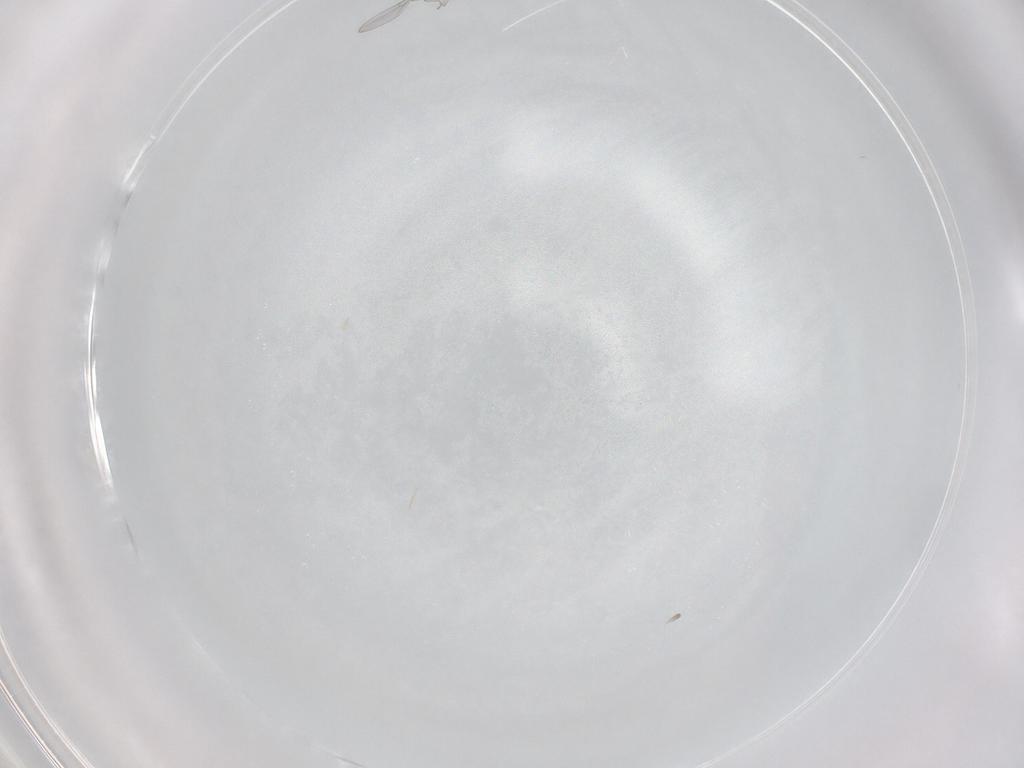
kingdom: Animalia
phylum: Arthropoda
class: Insecta
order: Diptera
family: Cecidomyiidae
